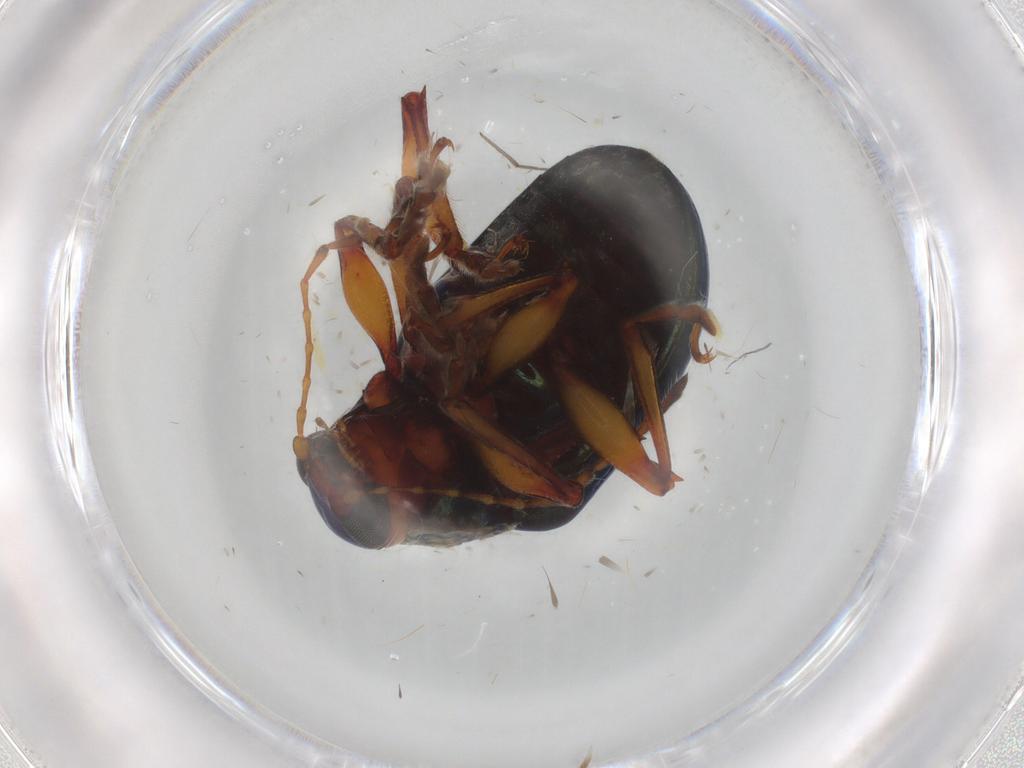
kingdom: Animalia
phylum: Arthropoda
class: Insecta
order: Coleoptera
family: Chrysomelidae
